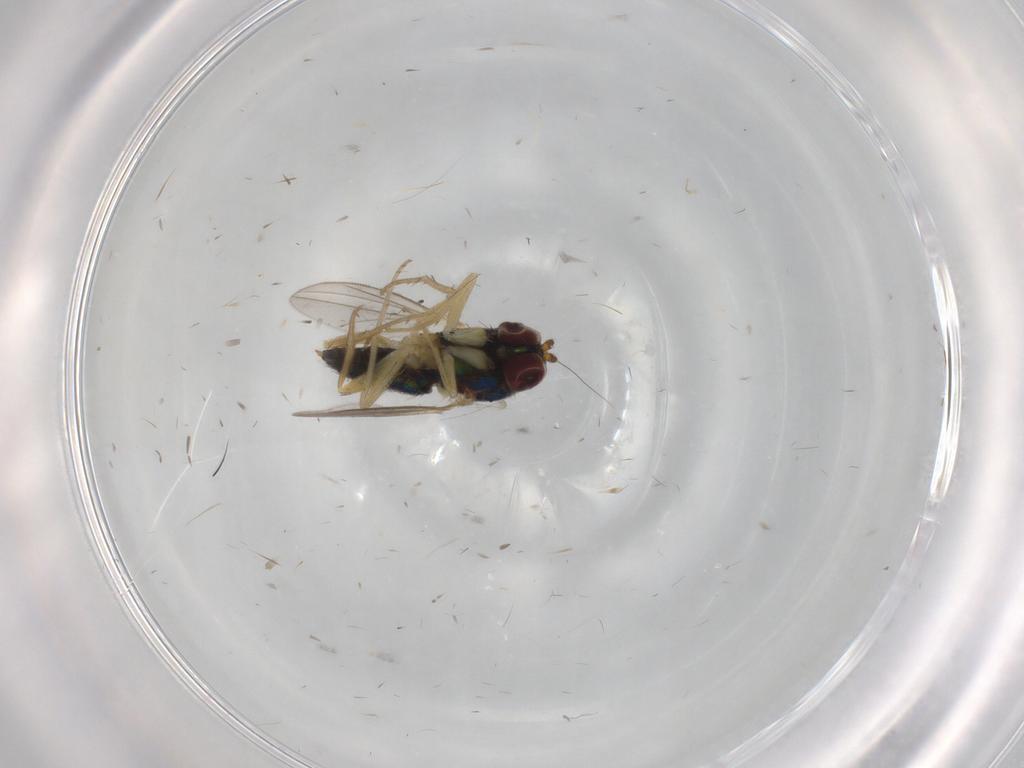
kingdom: Animalia
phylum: Arthropoda
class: Insecta
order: Diptera
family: Dolichopodidae
